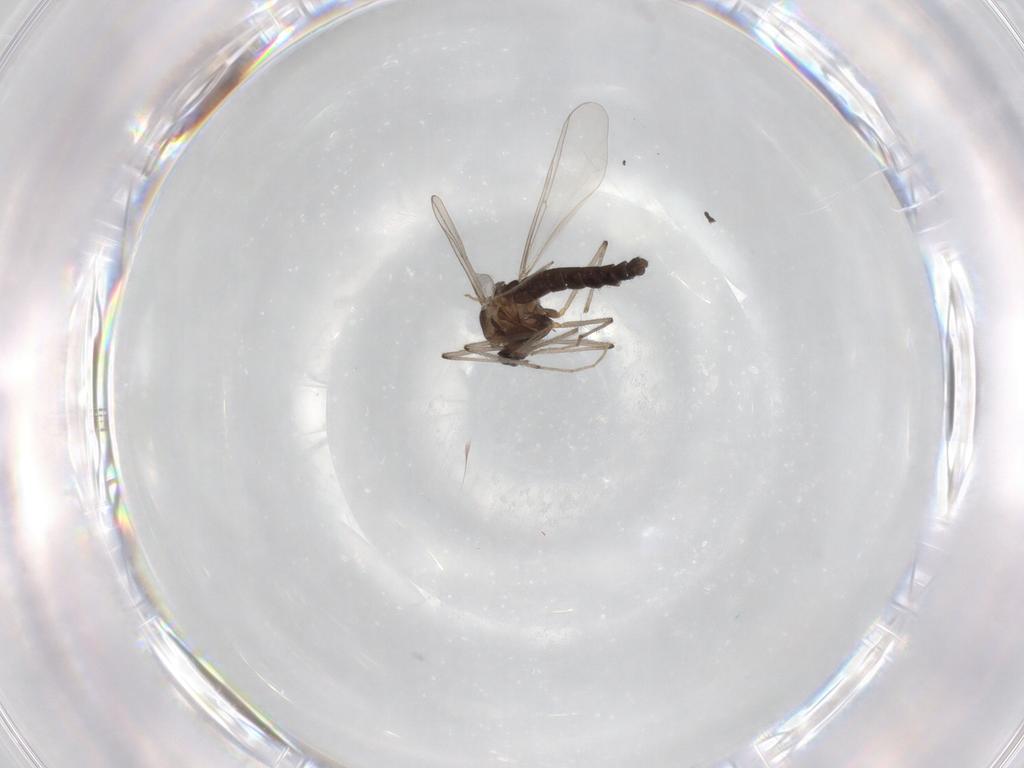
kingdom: Animalia
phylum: Arthropoda
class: Insecta
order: Diptera
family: Chironomidae
